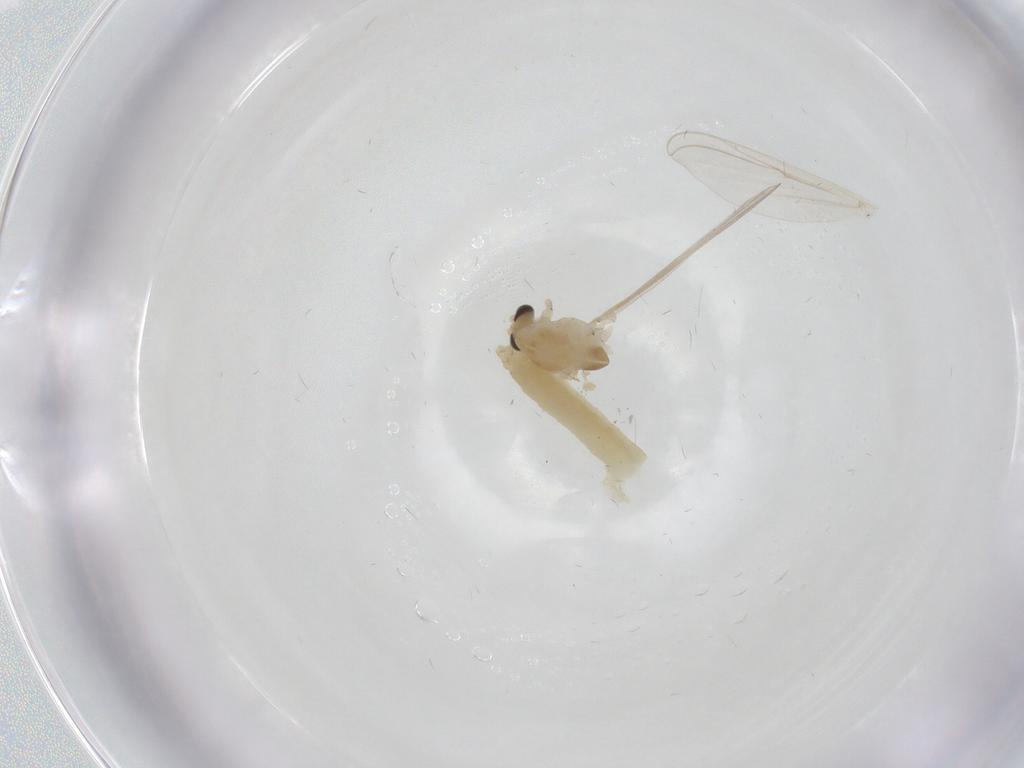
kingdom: Animalia
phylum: Arthropoda
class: Insecta
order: Diptera
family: Chironomidae
